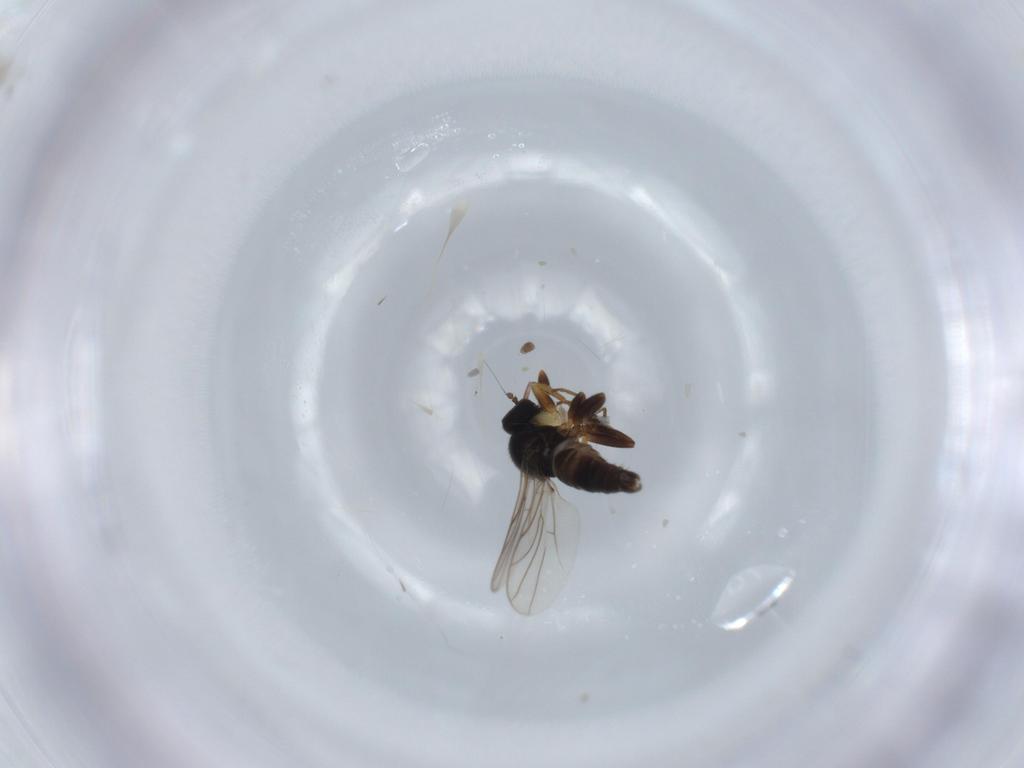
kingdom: Animalia
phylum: Arthropoda
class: Insecta
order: Diptera
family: Hybotidae
